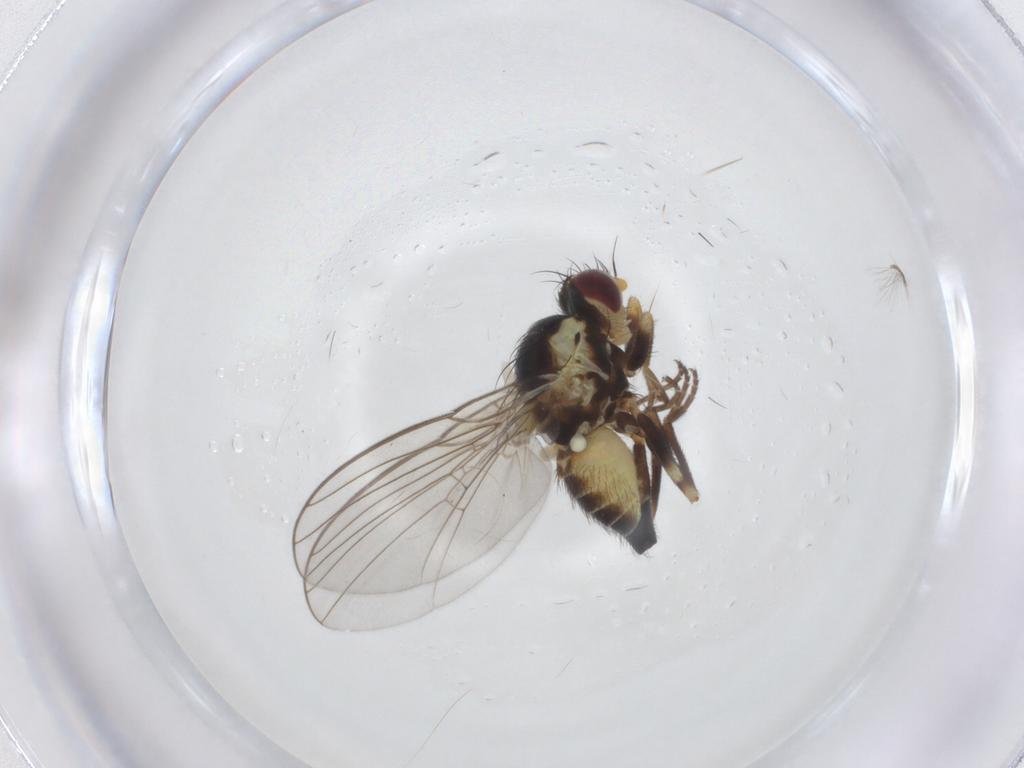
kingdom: Animalia
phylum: Arthropoda
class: Insecta
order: Diptera
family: Chironomidae
